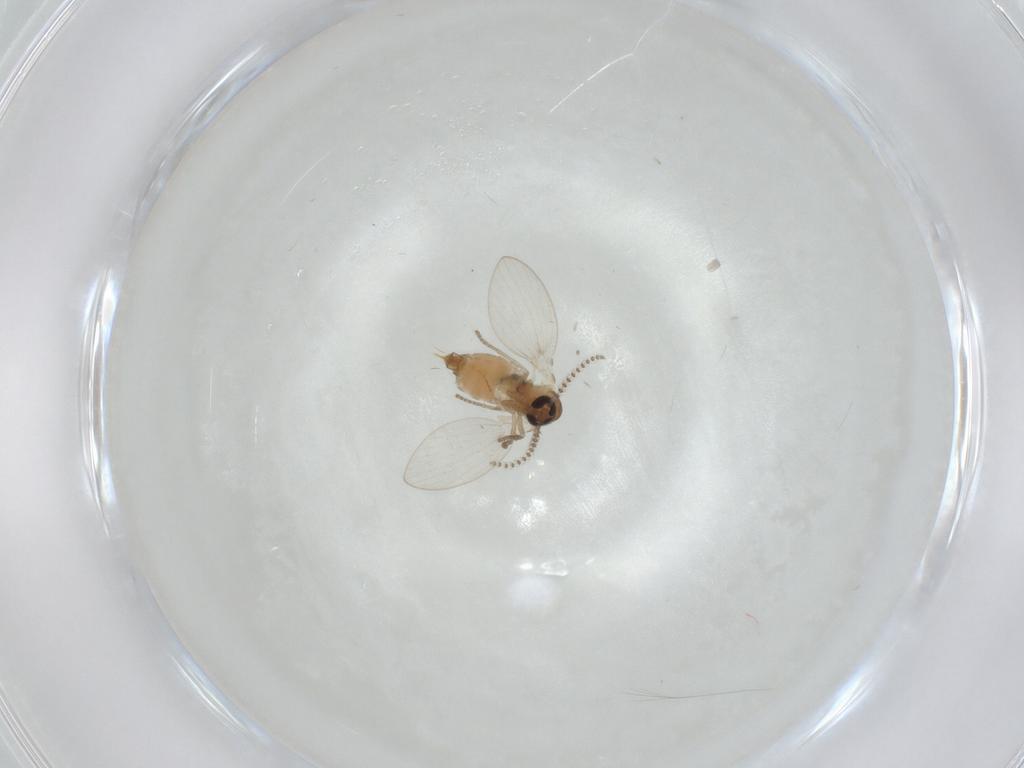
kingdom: Animalia
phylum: Arthropoda
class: Insecta
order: Diptera
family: Psychodidae
